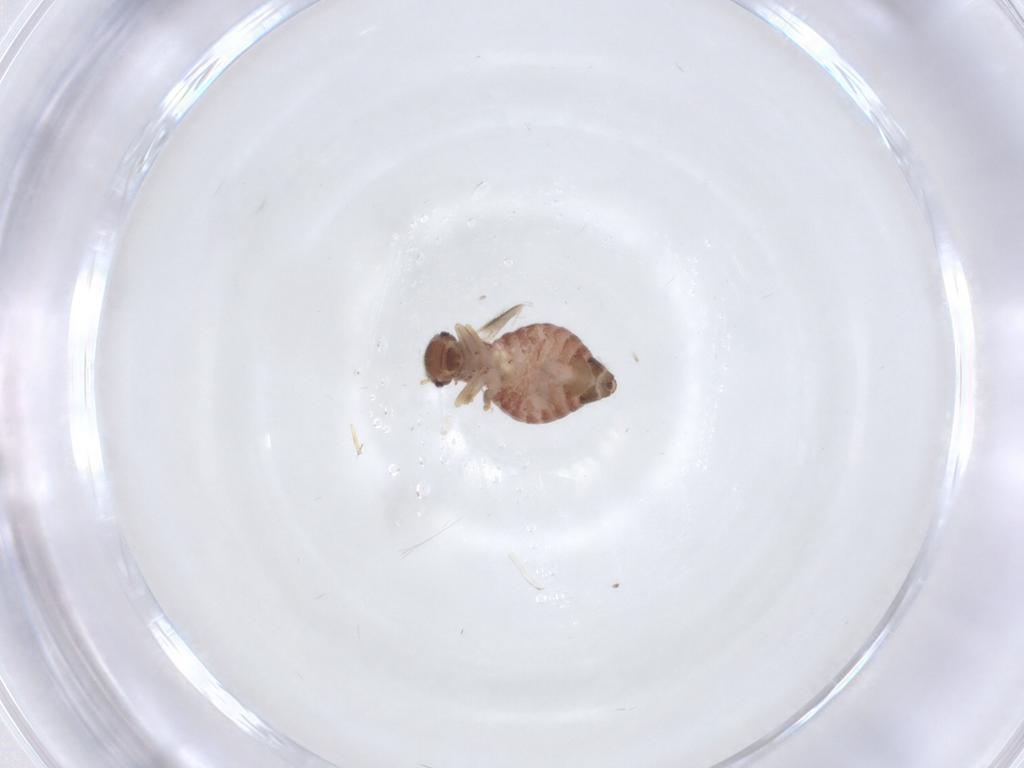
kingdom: Animalia
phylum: Arthropoda
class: Insecta
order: Psocodea
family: Archipsocidae
